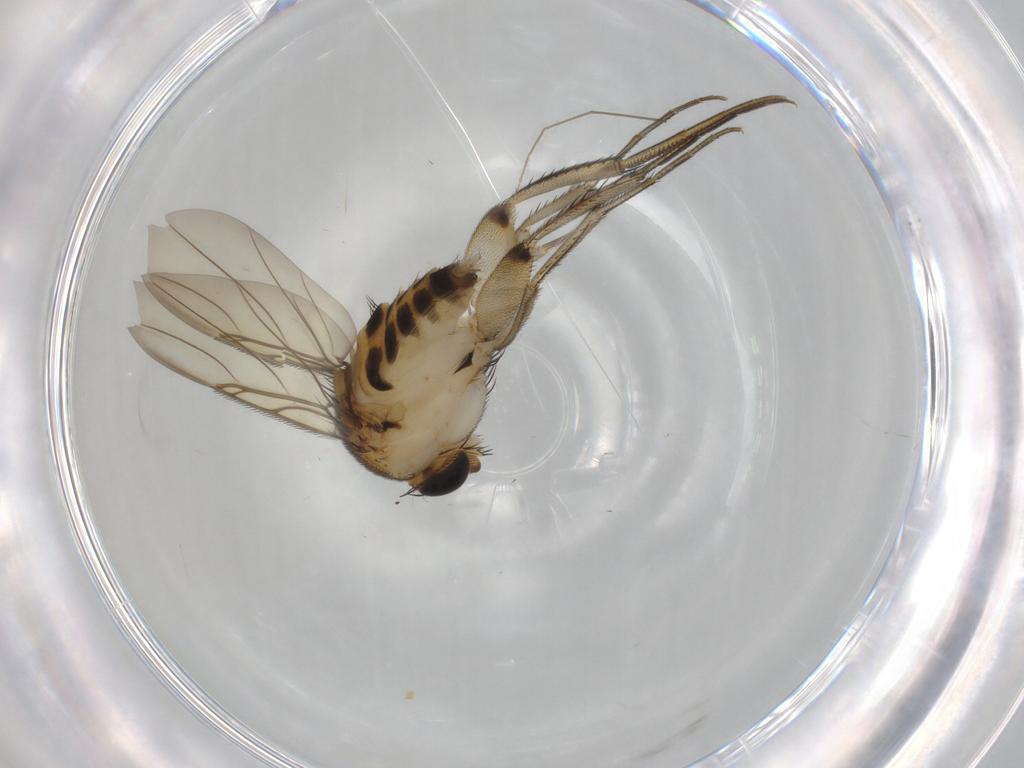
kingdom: Animalia
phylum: Arthropoda
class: Insecta
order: Diptera
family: Phoridae
